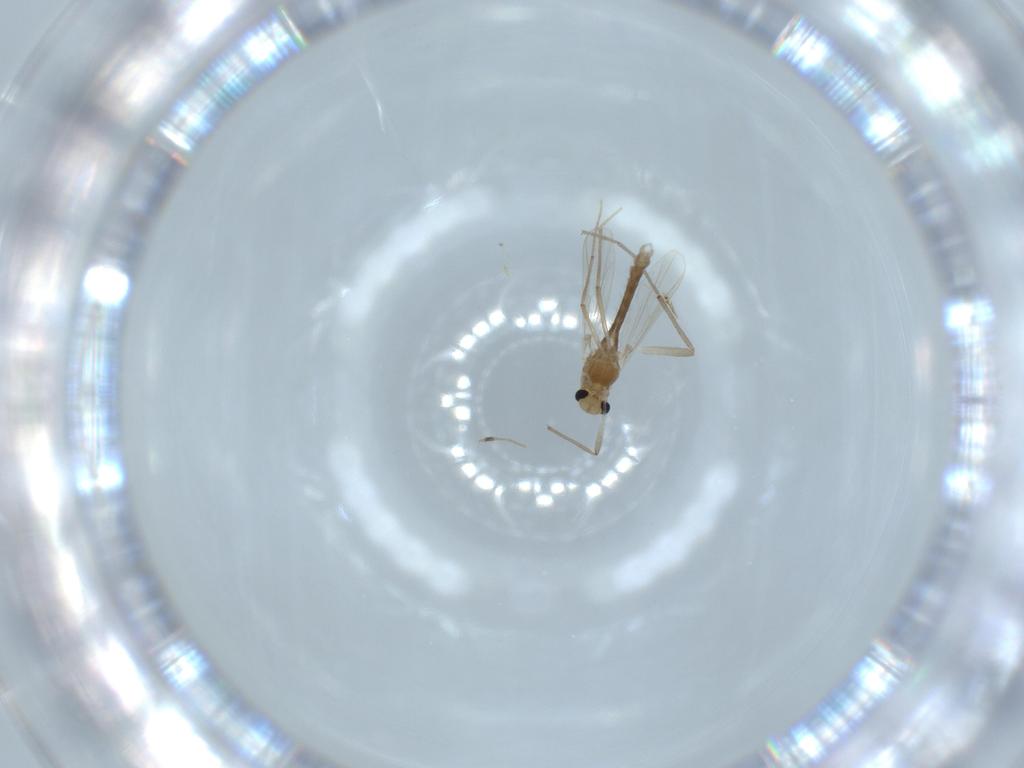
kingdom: Animalia
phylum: Arthropoda
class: Insecta
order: Diptera
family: Chironomidae
